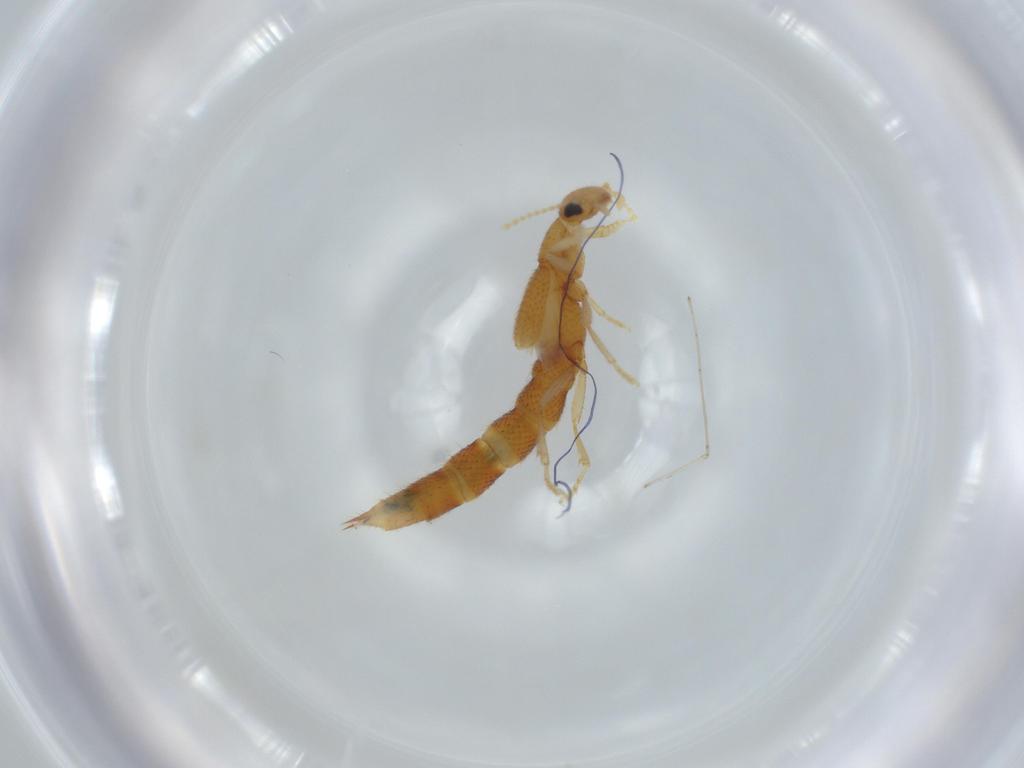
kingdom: Animalia
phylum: Arthropoda
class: Insecta
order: Coleoptera
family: Staphylinidae
